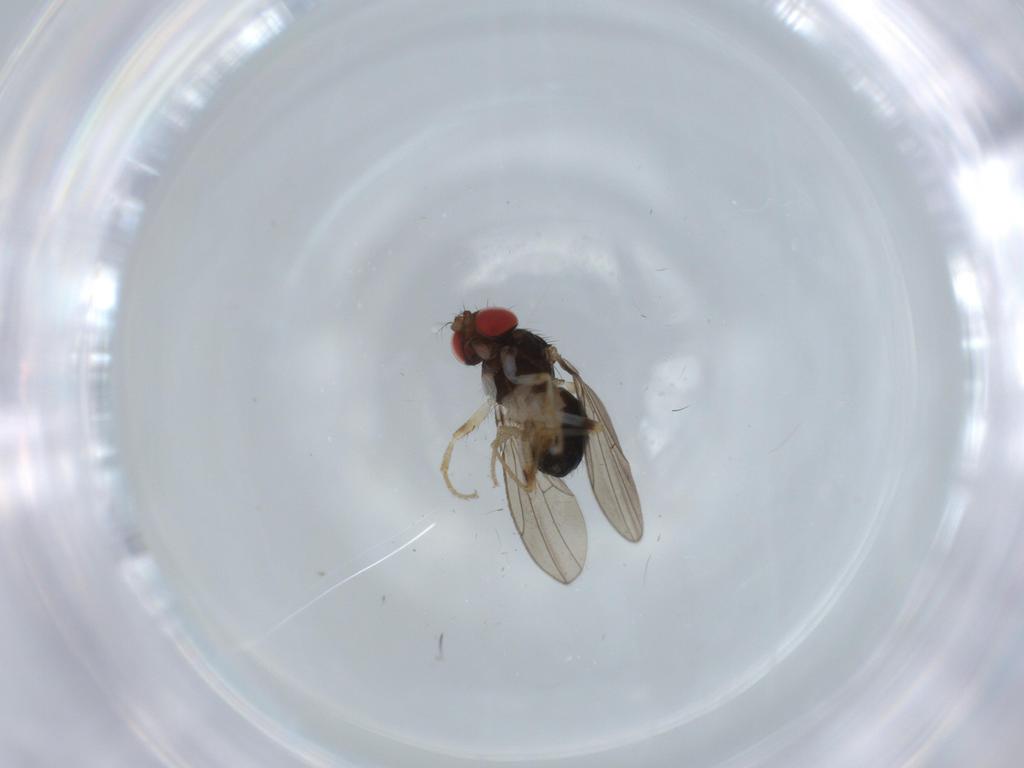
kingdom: Animalia
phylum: Arthropoda
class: Insecta
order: Diptera
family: Drosophilidae
